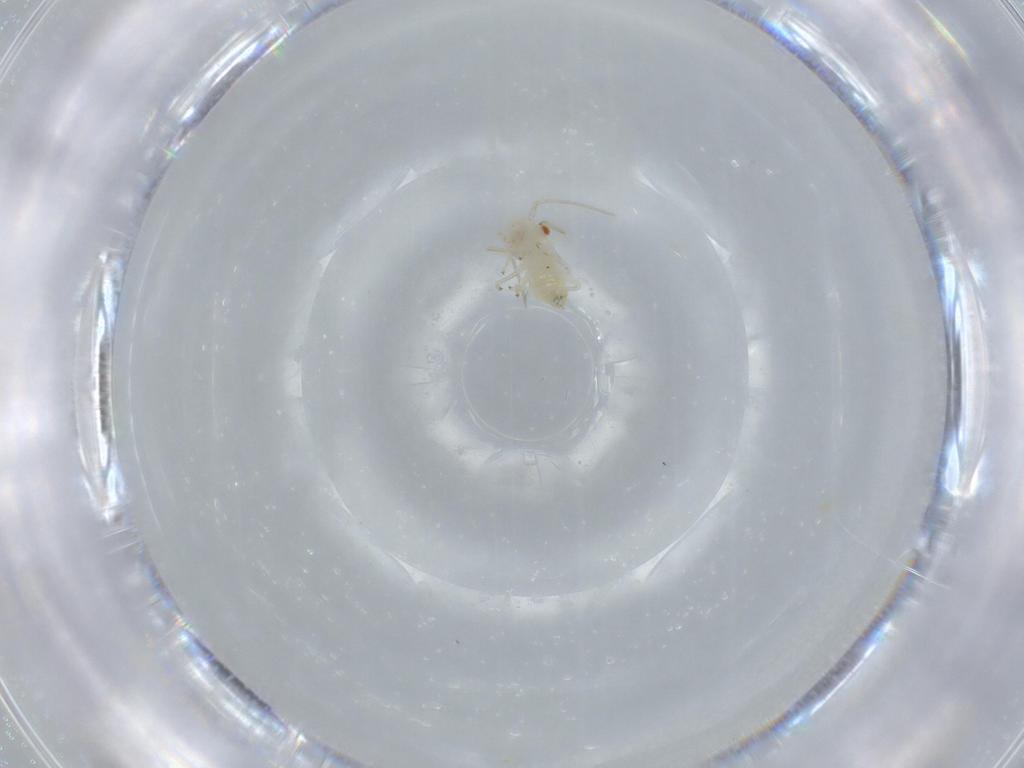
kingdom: Animalia
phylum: Arthropoda
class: Insecta
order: Psocodea
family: Caeciliusidae
